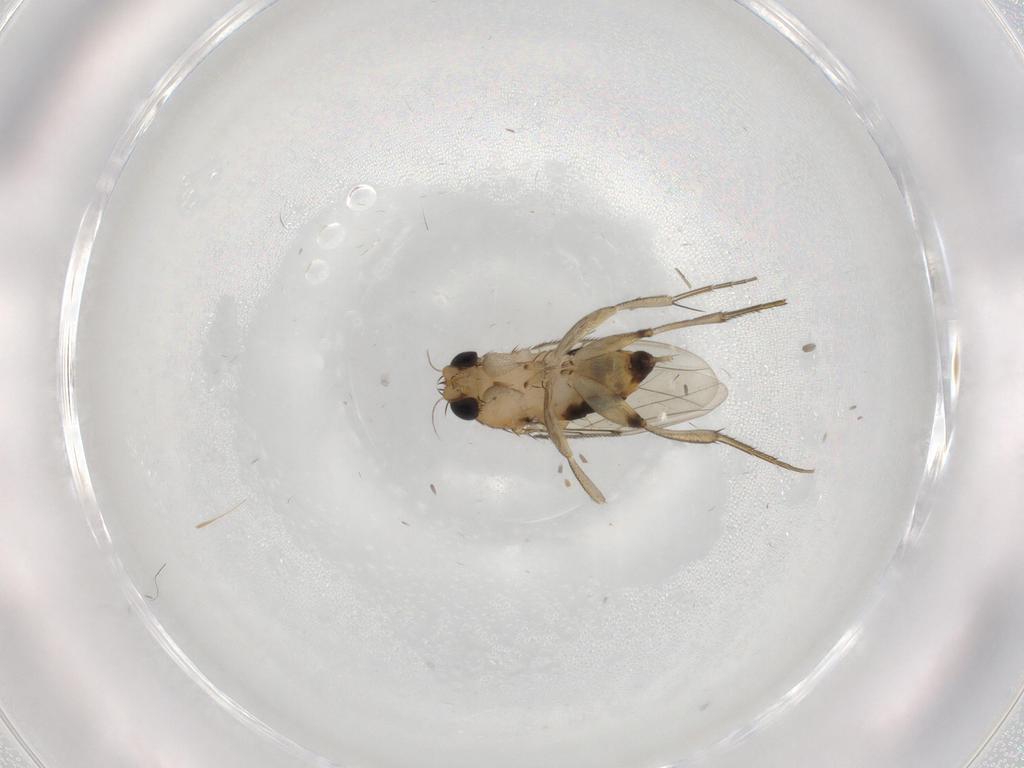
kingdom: Animalia
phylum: Arthropoda
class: Insecta
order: Diptera
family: Phoridae
